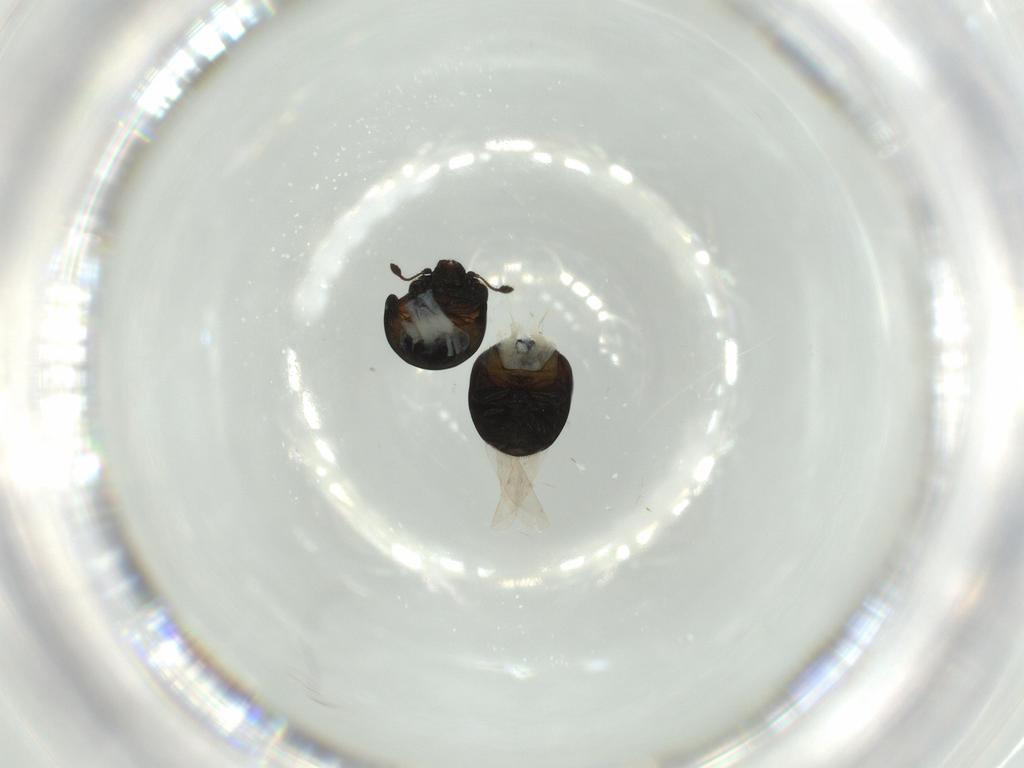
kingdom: Animalia
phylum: Arthropoda
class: Insecta
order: Coleoptera
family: Cybocephalidae
